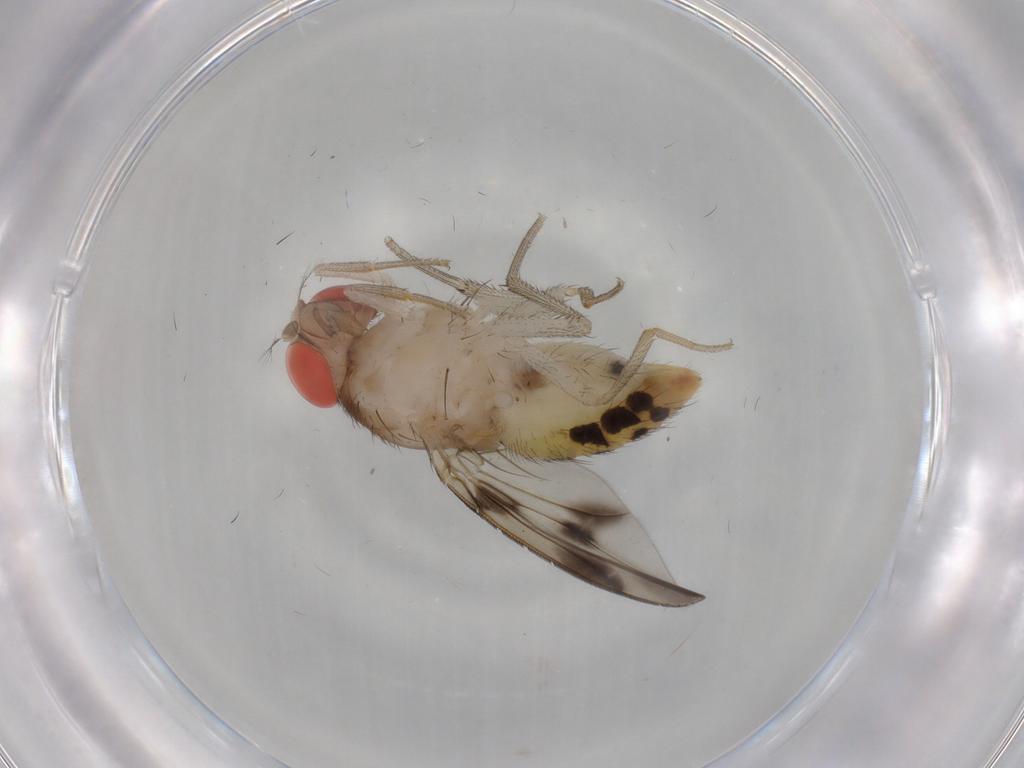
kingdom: Animalia
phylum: Arthropoda
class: Insecta
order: Diptera
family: Drosophilidae
